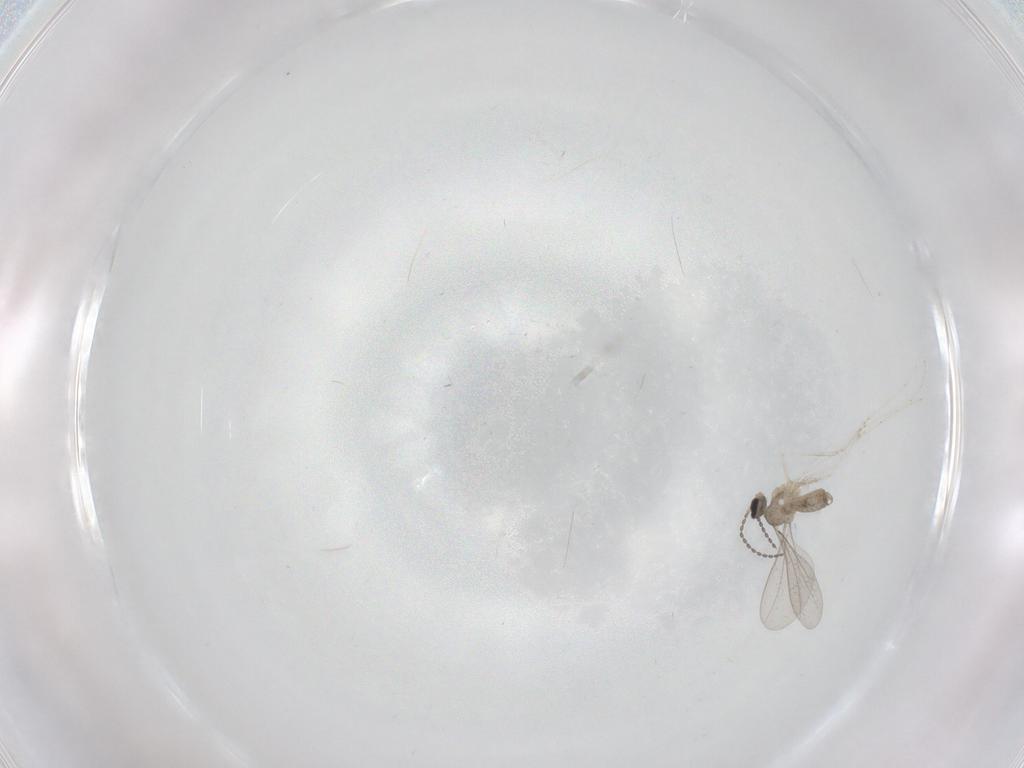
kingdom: Animalia
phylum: Arthropoda
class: Insecta
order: Diptera
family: Cecidomyiidae
